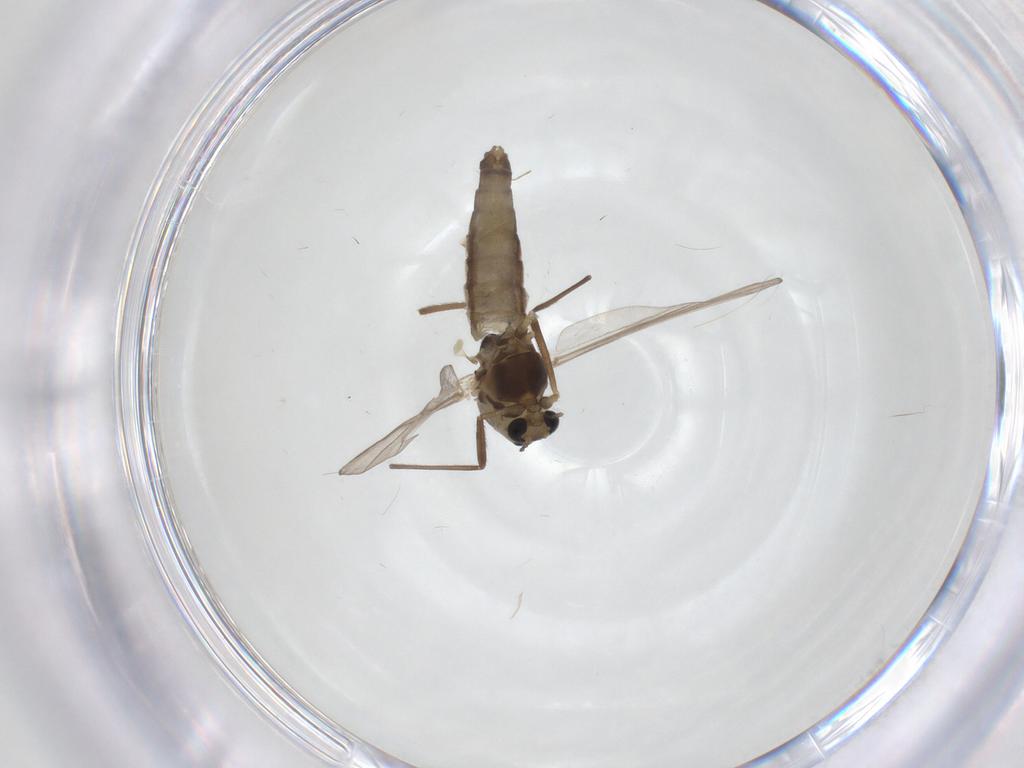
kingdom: Animalia
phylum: Arthropoda
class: Insecta
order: Diptera
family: Chironomidae
